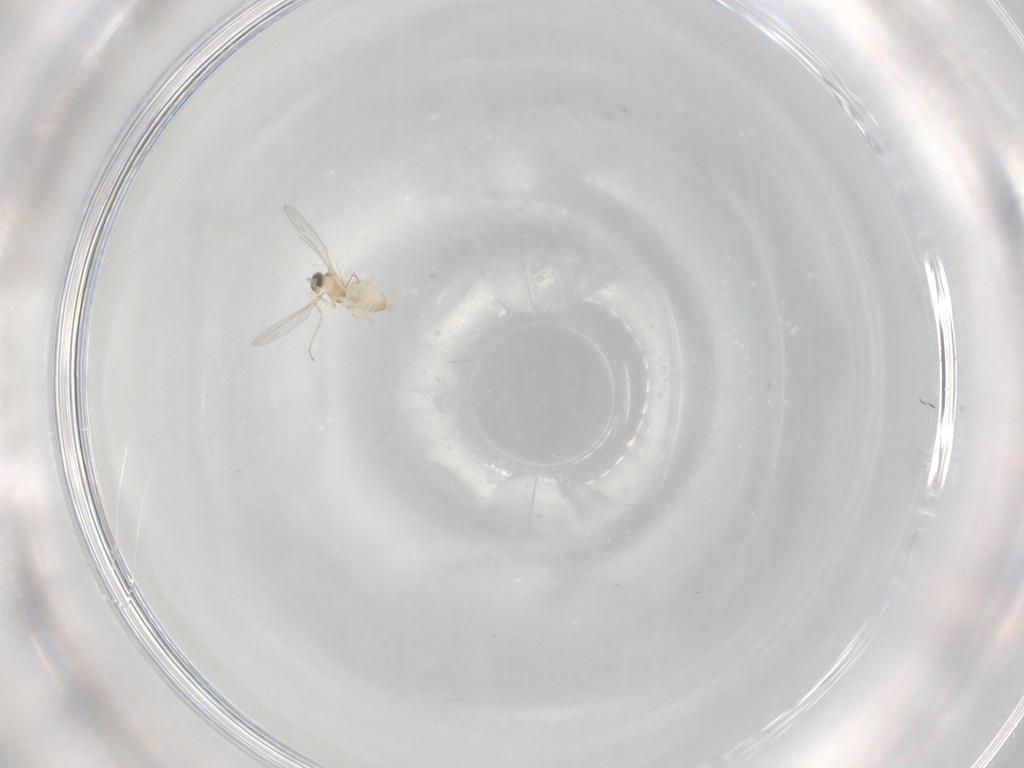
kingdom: Animalia
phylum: Arthropoda
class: Insecta
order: Diptera
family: Cecidomyiidae
